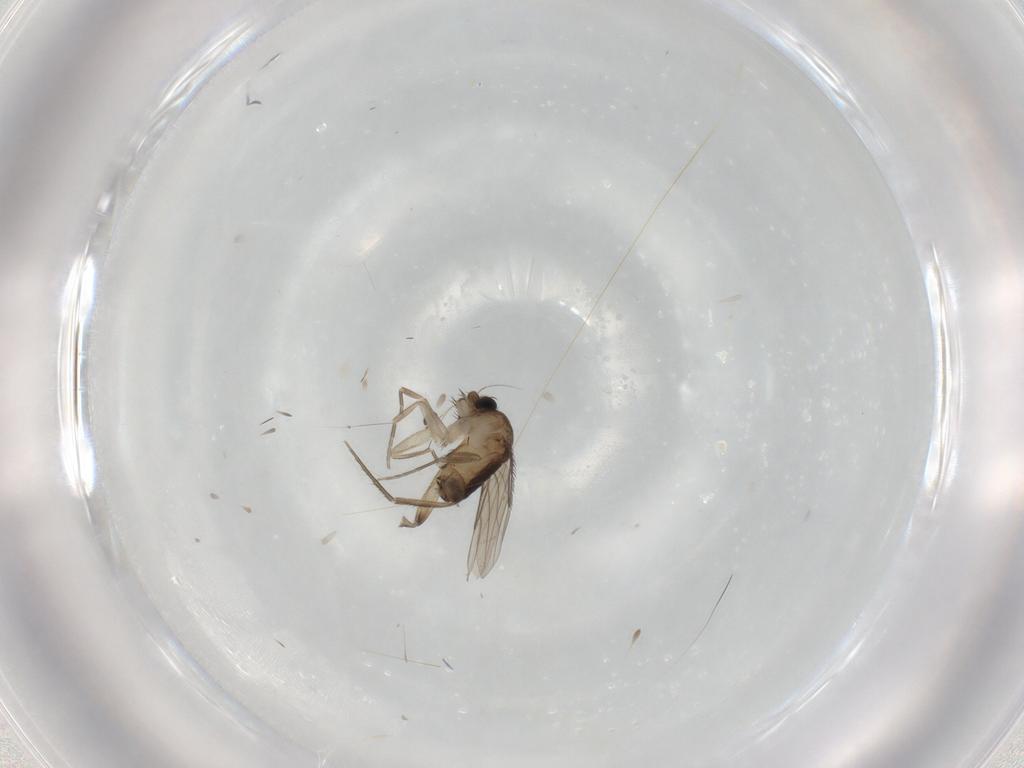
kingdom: Animalia
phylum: Arthropoda
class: Insecta
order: Diptera
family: Phoridae
